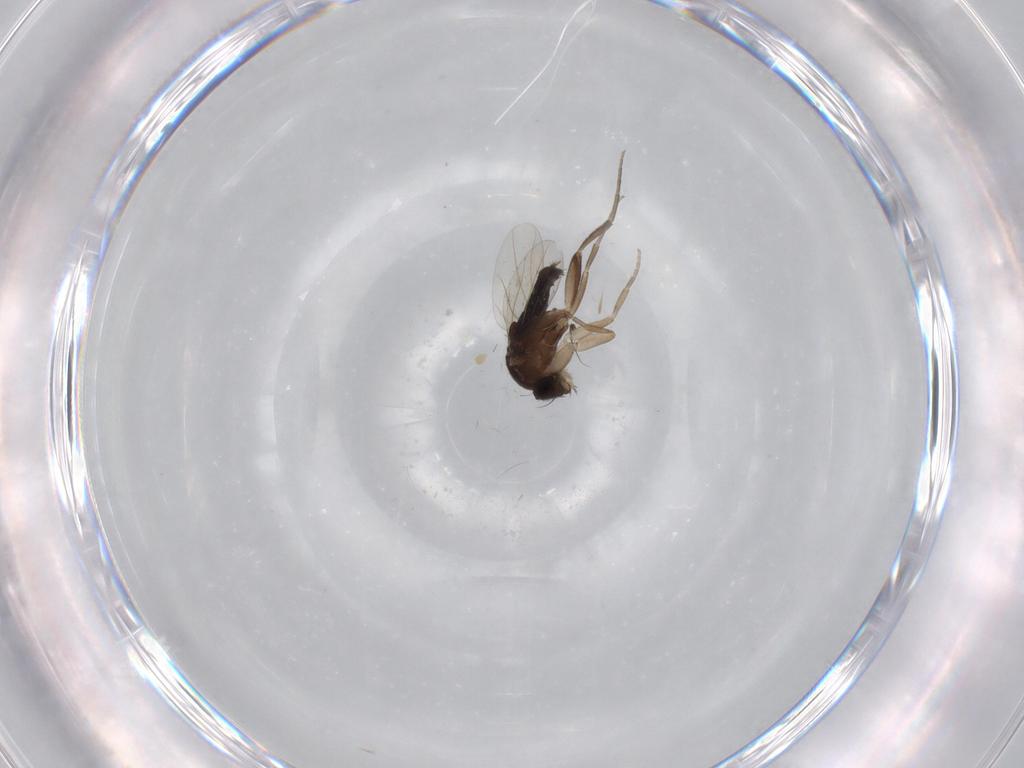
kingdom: Animalia
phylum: Arthropoda
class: Insecta
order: Diptera
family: Phoridae
